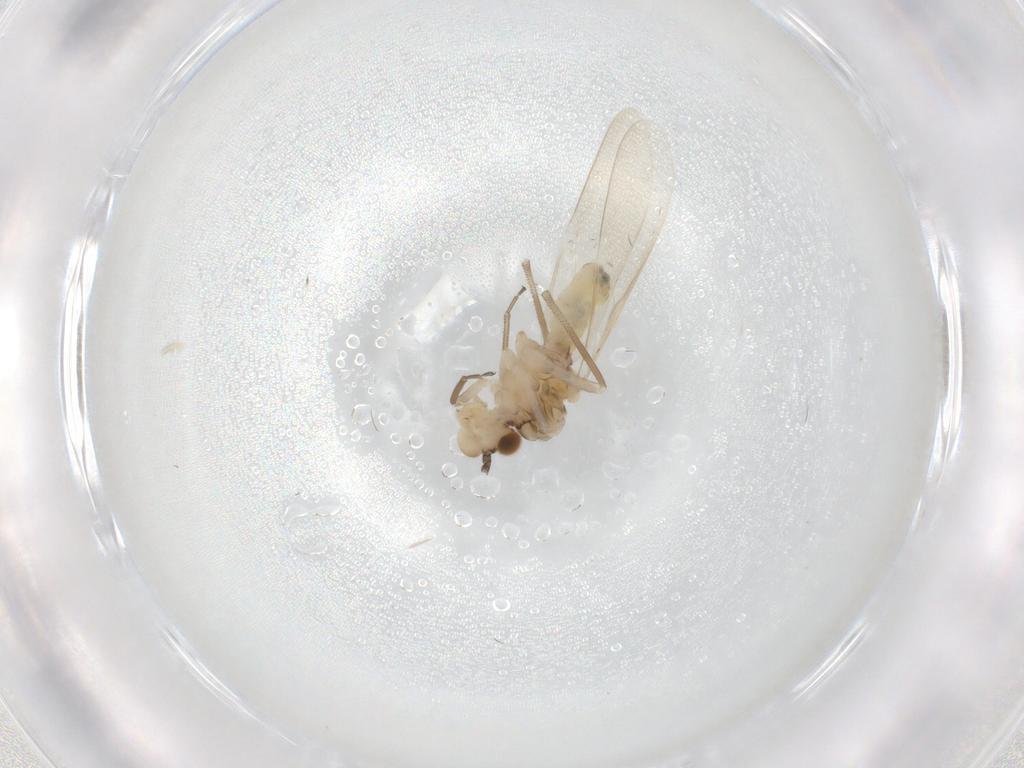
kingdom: Animalia
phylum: Arthropoda
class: Insecta
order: Psocodea
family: Caeciliusidae
